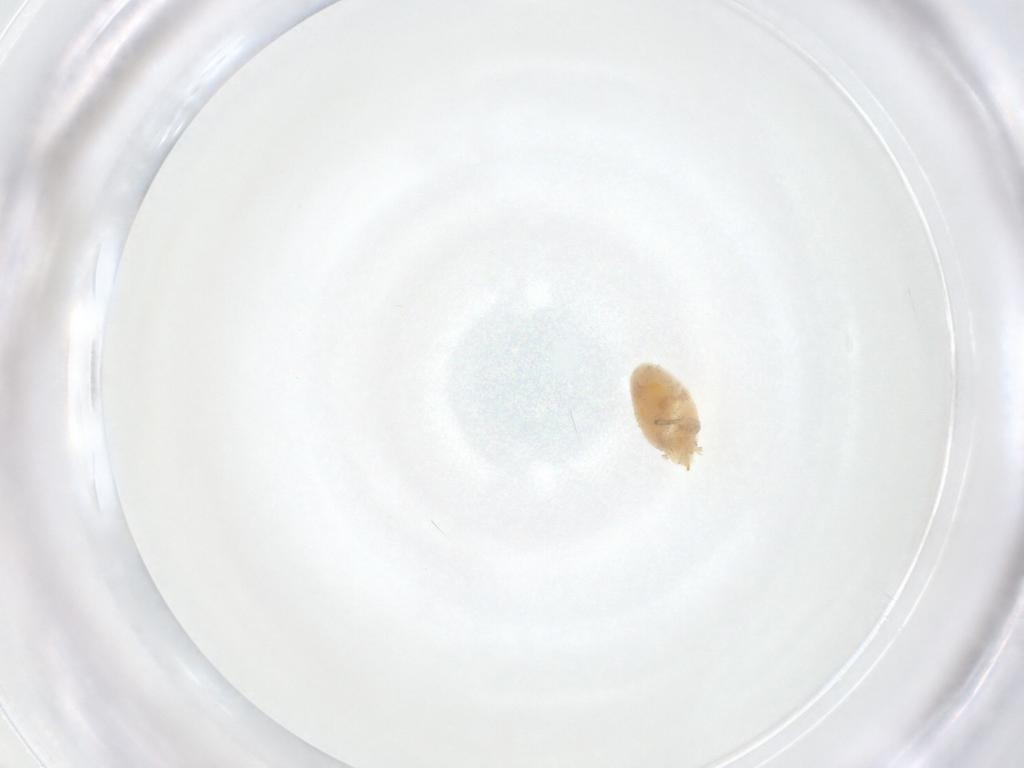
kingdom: Animalia
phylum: Arthropoda
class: Arachnida
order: Trombidiformes
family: Smarididae
